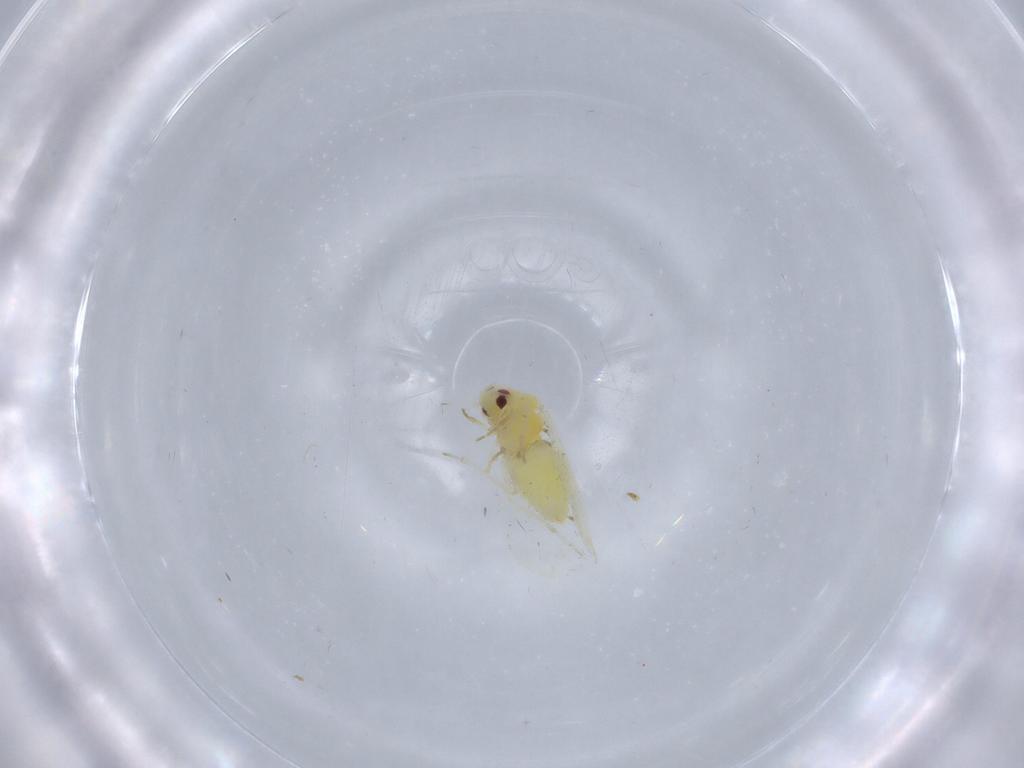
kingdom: Animalia
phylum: Arthropoda
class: Insecta
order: Hemiptera
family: Aleyrodidae
